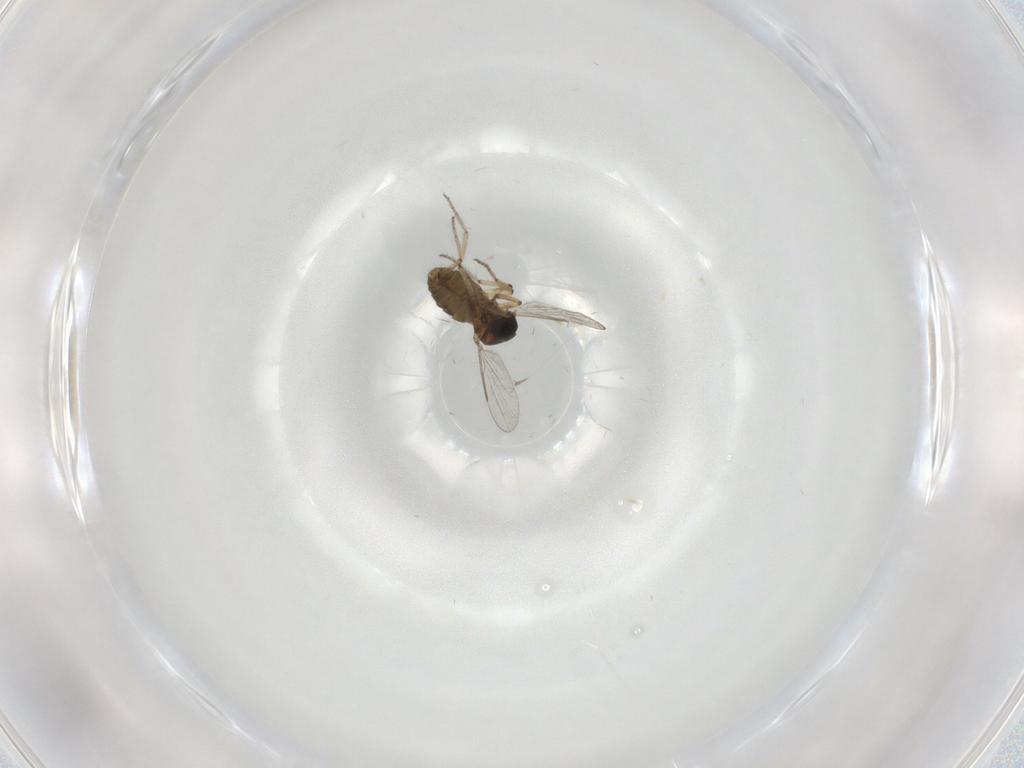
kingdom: Animalia
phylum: Arthropoda
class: Insecta
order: Diptera
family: Ceratopogonidae
